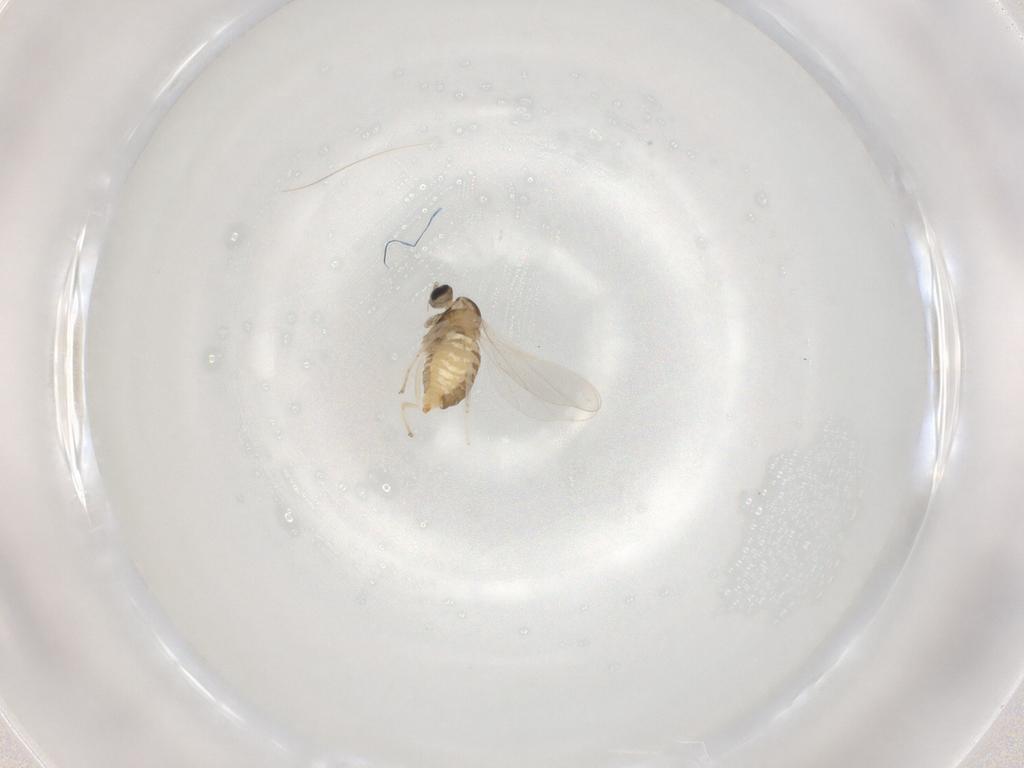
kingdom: Animalia
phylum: Arthropoda
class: Insecta
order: Diptera
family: Cecidomyiidae
